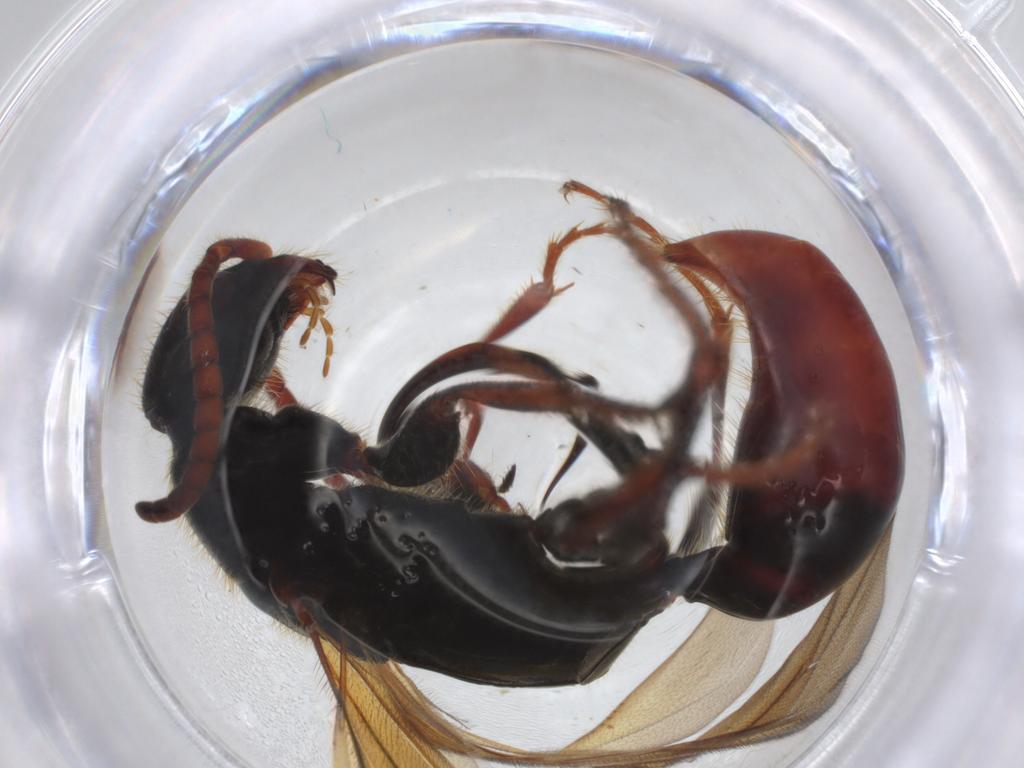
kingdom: Animalia
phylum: Arthropoda
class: Insecta
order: Hymenoptera
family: Bethylidae
